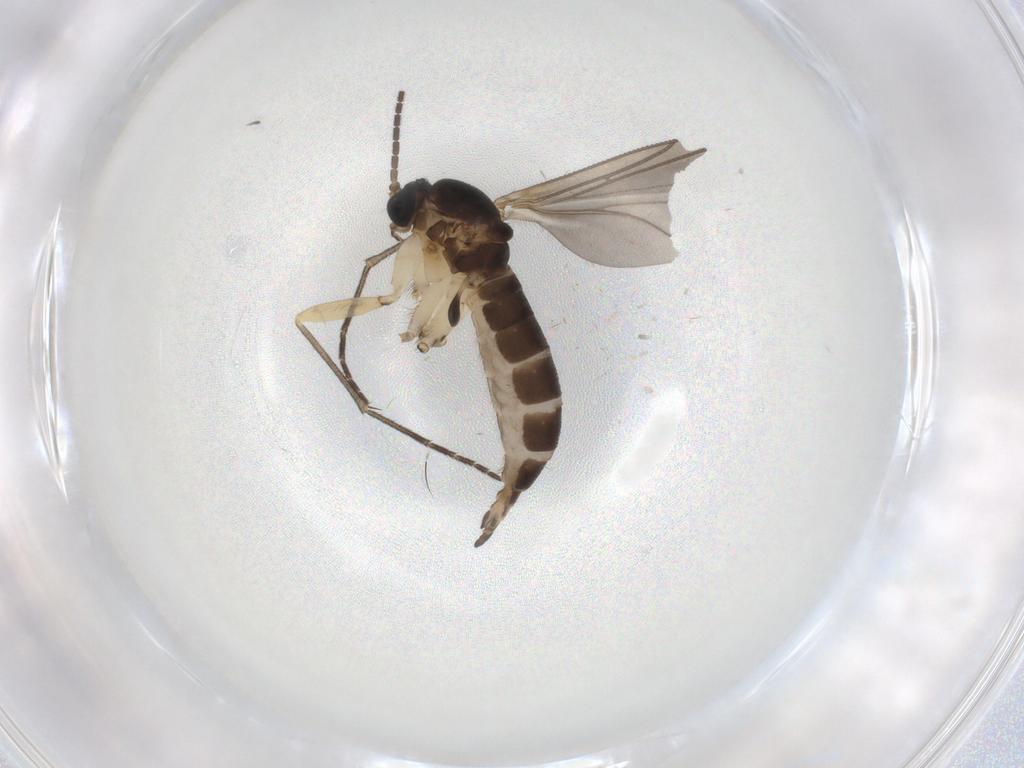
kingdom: Animalia
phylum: Arthropoda
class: Insecta
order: Diptera
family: Sciaridae
